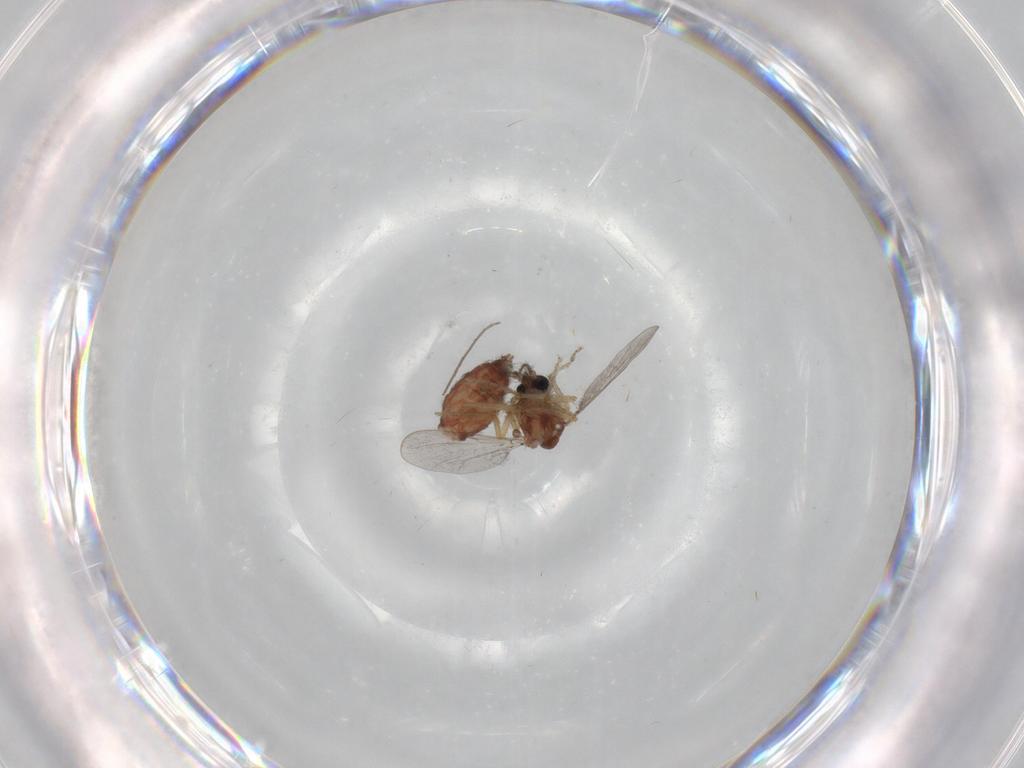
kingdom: Animalia
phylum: Arthropoda
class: Insecta
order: Diptera
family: Ceratopogonidae
